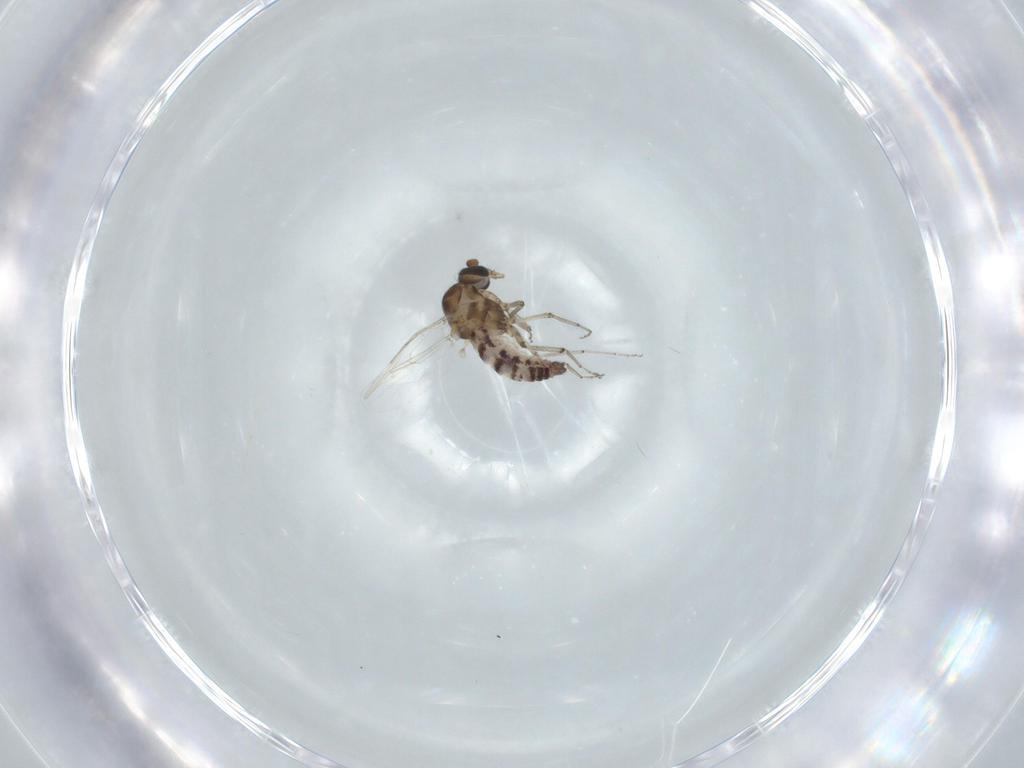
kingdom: Animalia
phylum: Arthropoda
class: Insecta
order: Diptera
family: Ceratopogonidae
